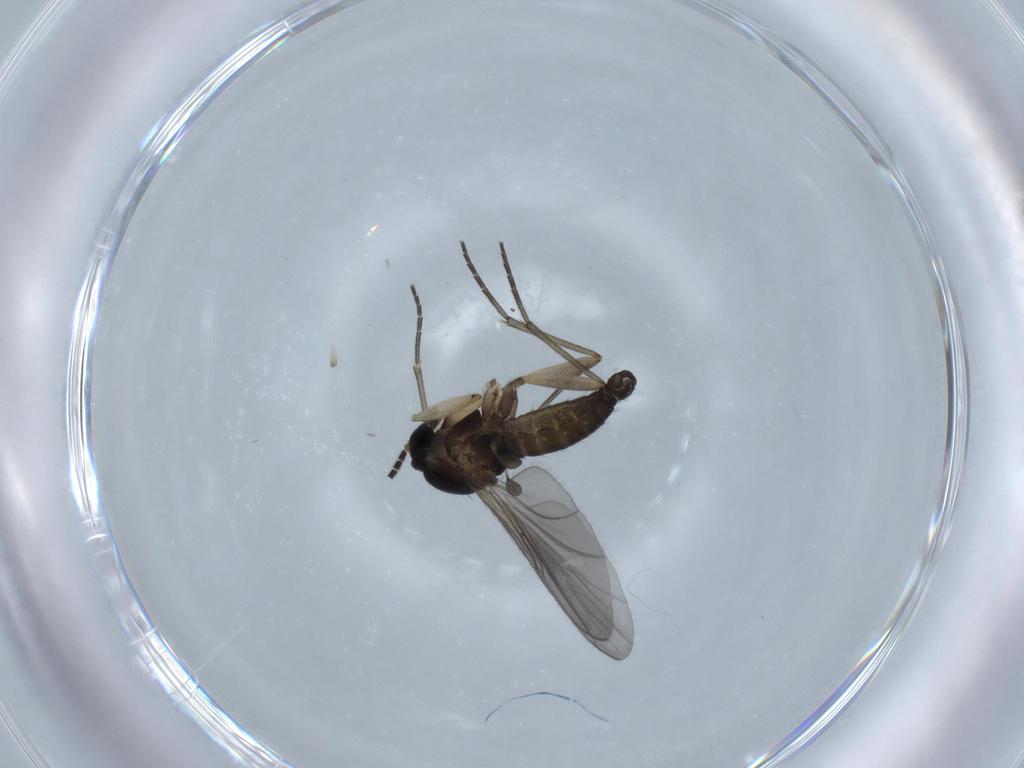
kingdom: Animalia
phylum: Arthropoda
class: Insecta
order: Diptera
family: Sciaridae
